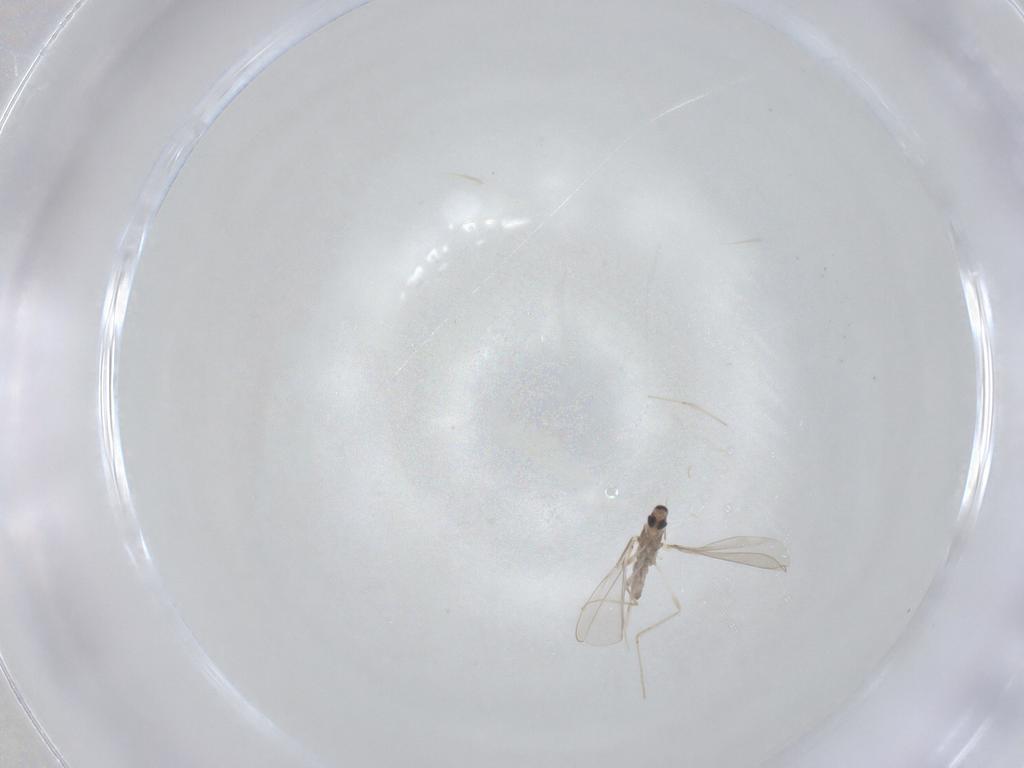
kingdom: Animalia
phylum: Arthropoda
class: Insecta
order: Diptera
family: Cecidomyiidae
